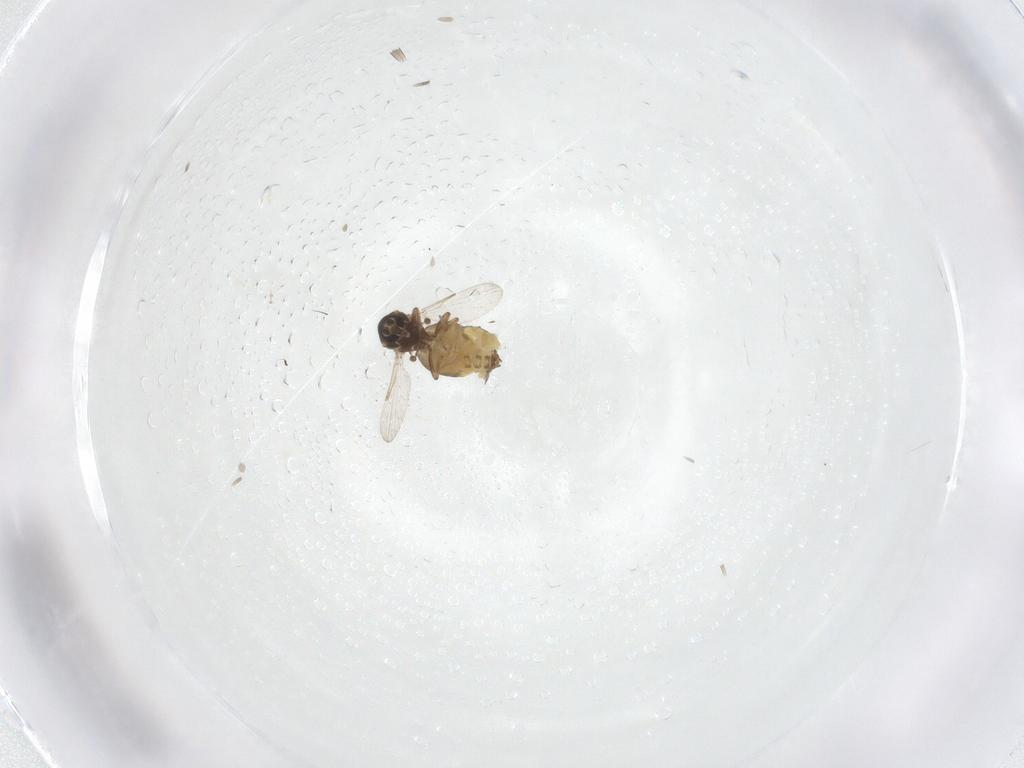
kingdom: Animalia
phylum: Arthropoda
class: Insecta
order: Diptera
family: Ceratopogonidae
